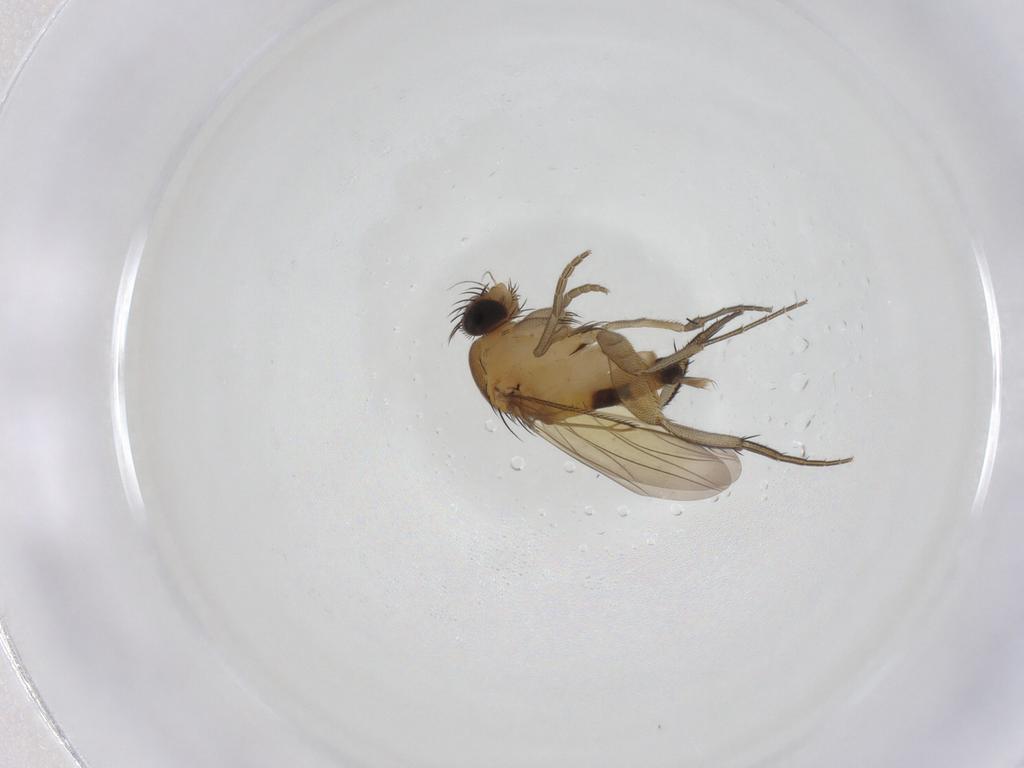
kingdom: Animalia
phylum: Arthropoda
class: Insecta
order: Diptera
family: Phoridae
